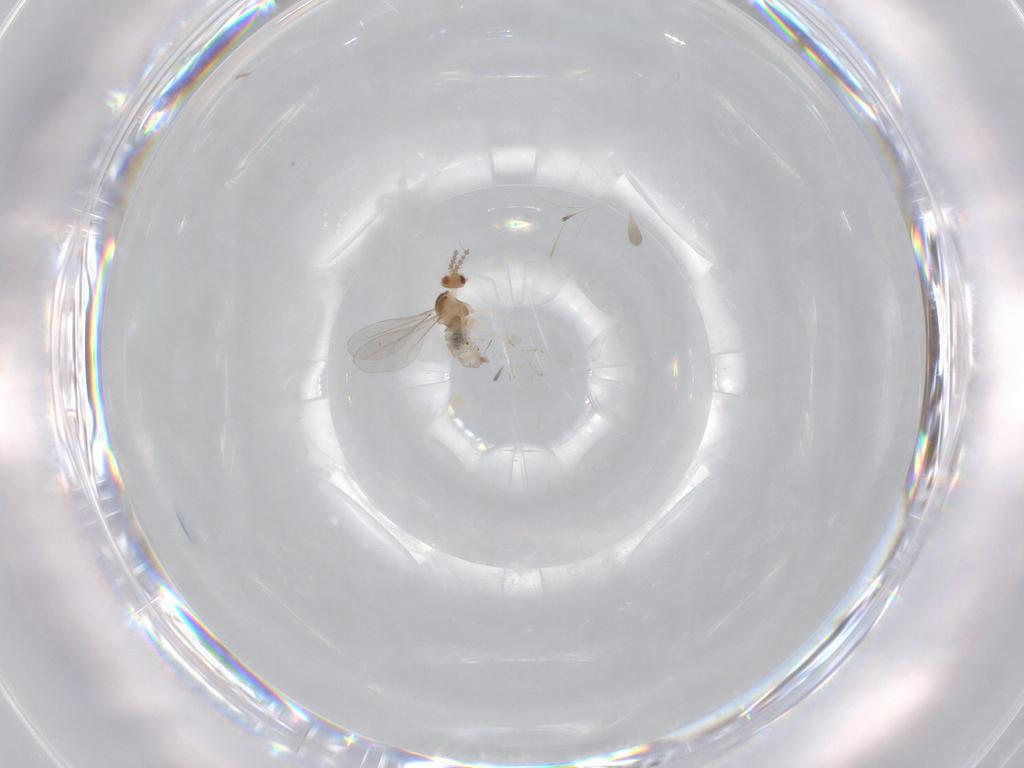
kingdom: Animalia
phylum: Arthropoda
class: Insecta
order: Diptera
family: Cecidomyiidae
